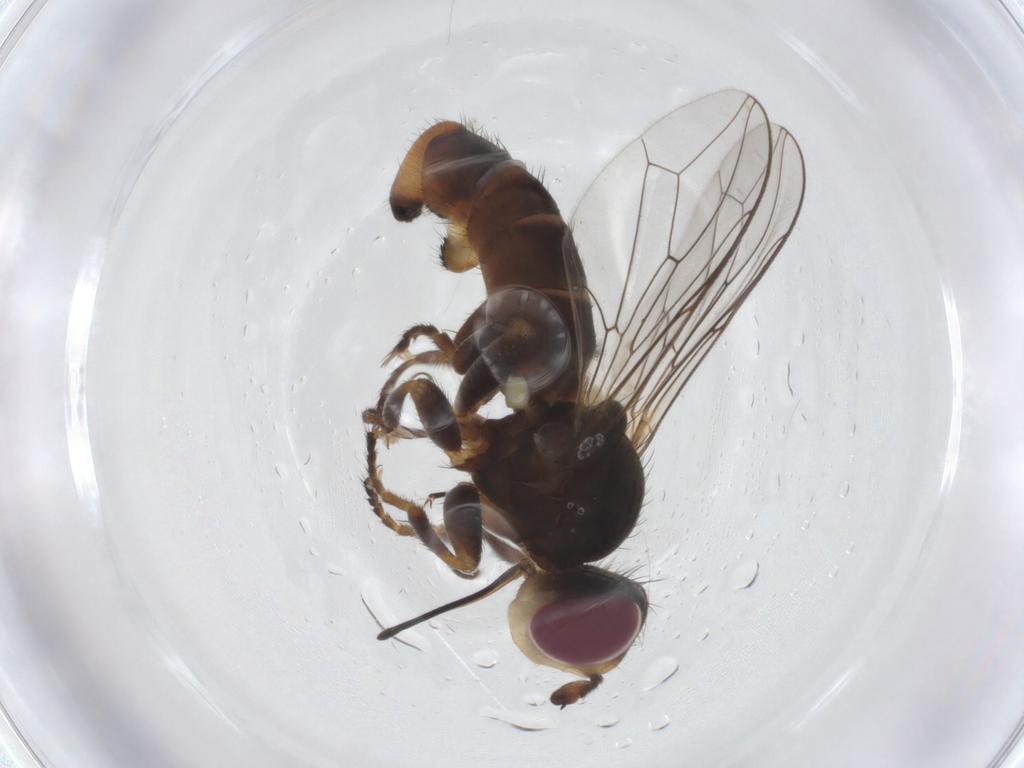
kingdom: Animalia
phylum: Arthropoda
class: Insecta
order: Diptera
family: Conopidae
